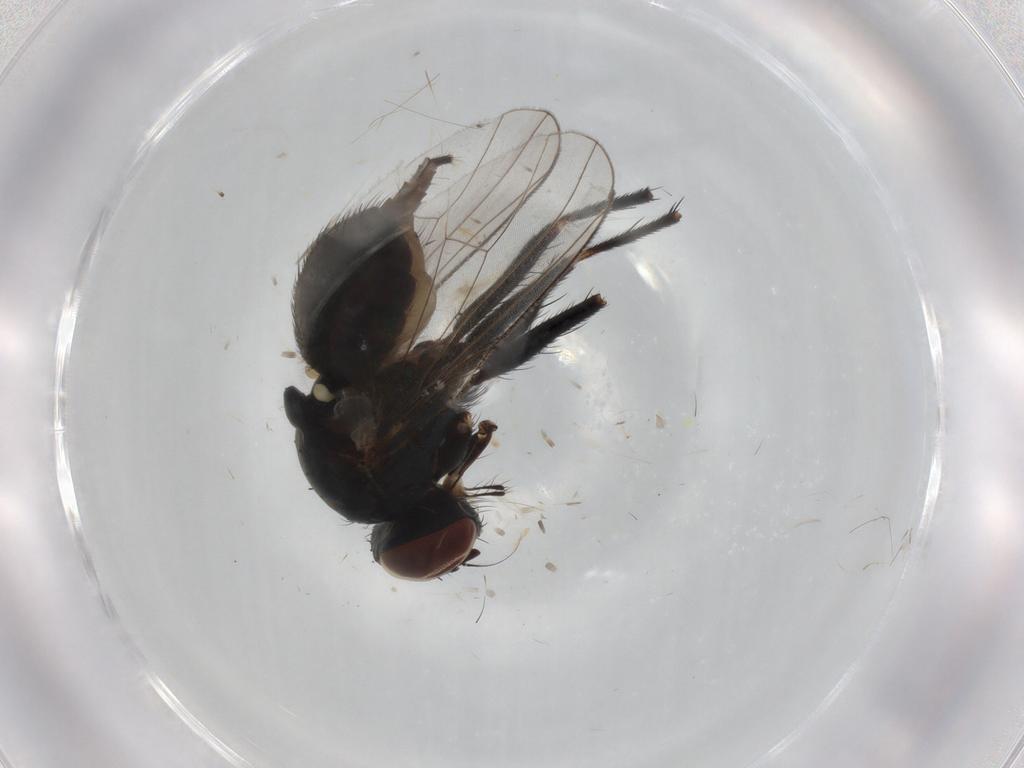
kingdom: Animalia
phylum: Arthropoda
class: Insecta
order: Diptera
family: Muscidae
